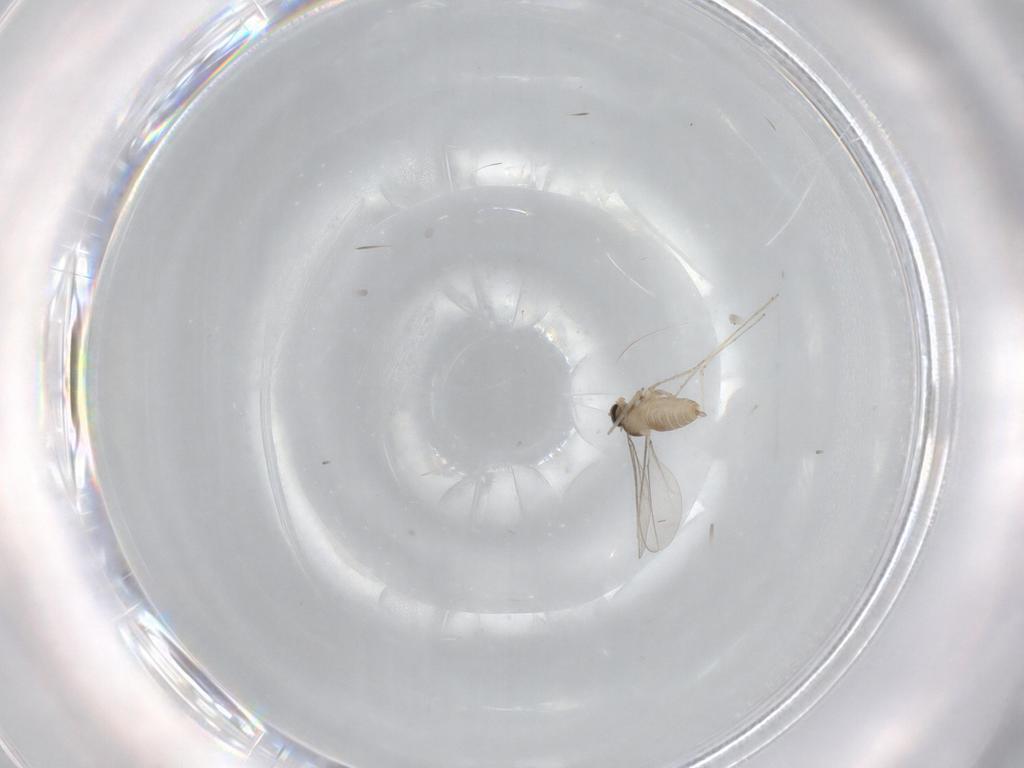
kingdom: Animalia
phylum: Arthropoda
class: Insecta
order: Diptera
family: Cecidomyiidae
